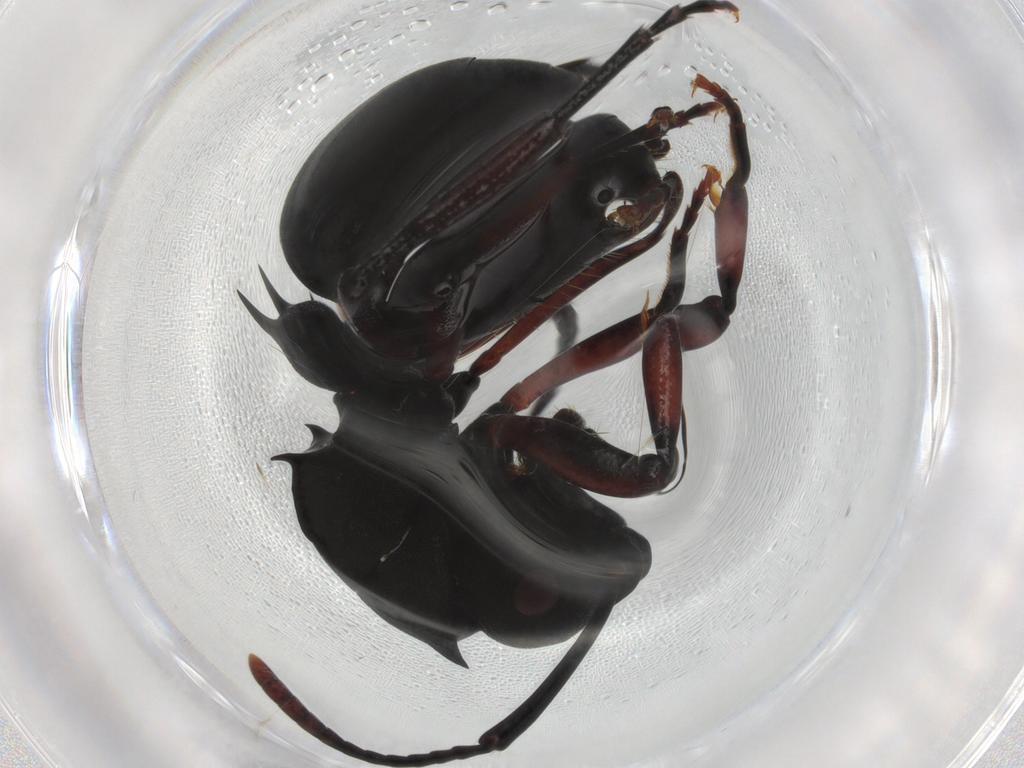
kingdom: Animalia
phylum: Arthropoda
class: Insecta
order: Hymenoptera
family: Formicidae
